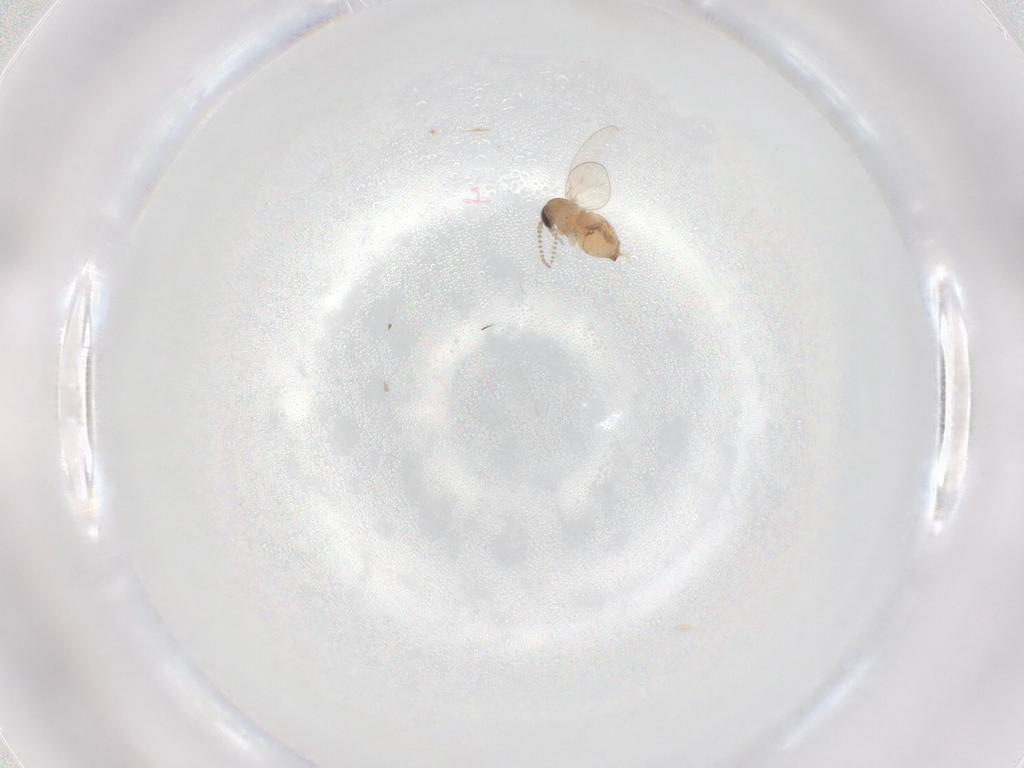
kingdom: Animalia
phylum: Arthropoda
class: Insecta
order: Diptera
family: Psychodidae
